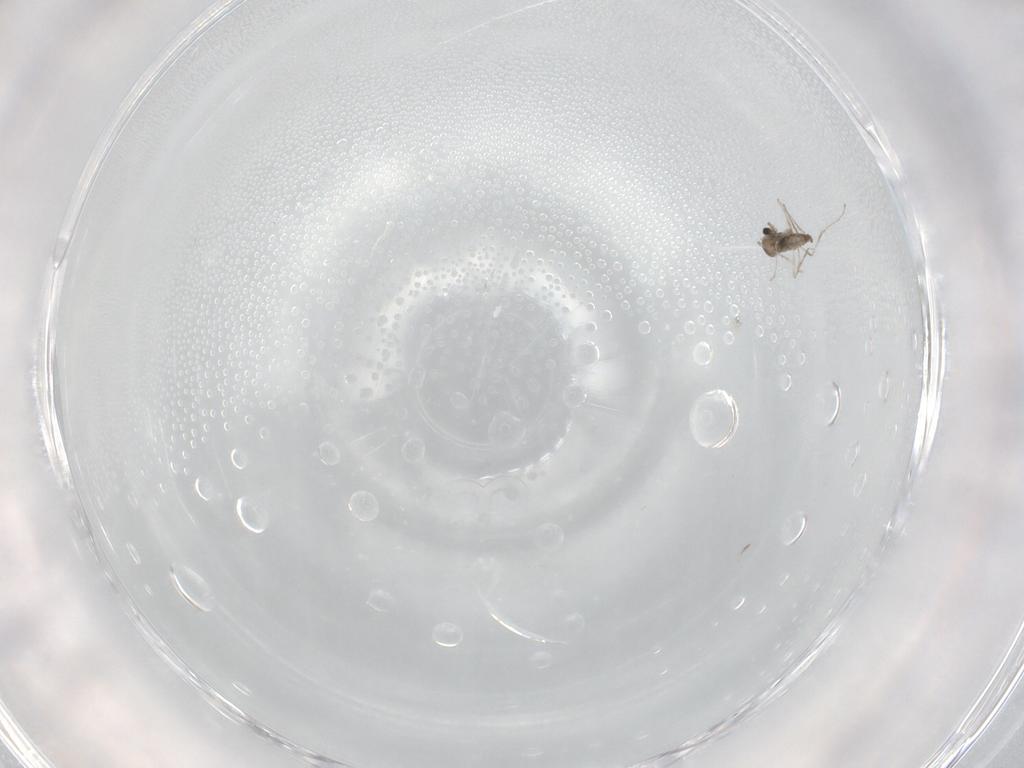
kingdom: Animalia
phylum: Arthropoda
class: Insecta
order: Diptera
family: Cecidomyiidae
